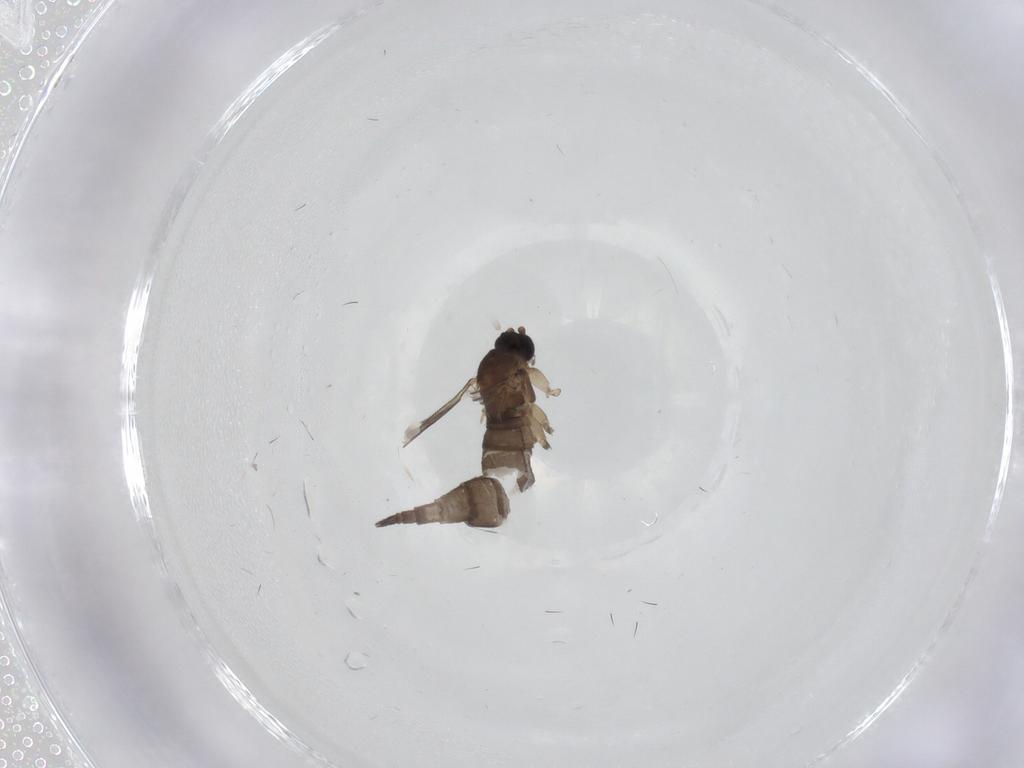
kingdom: Animalia
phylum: Arthropoda
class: Insecta
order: Diptera
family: Sciaridae
